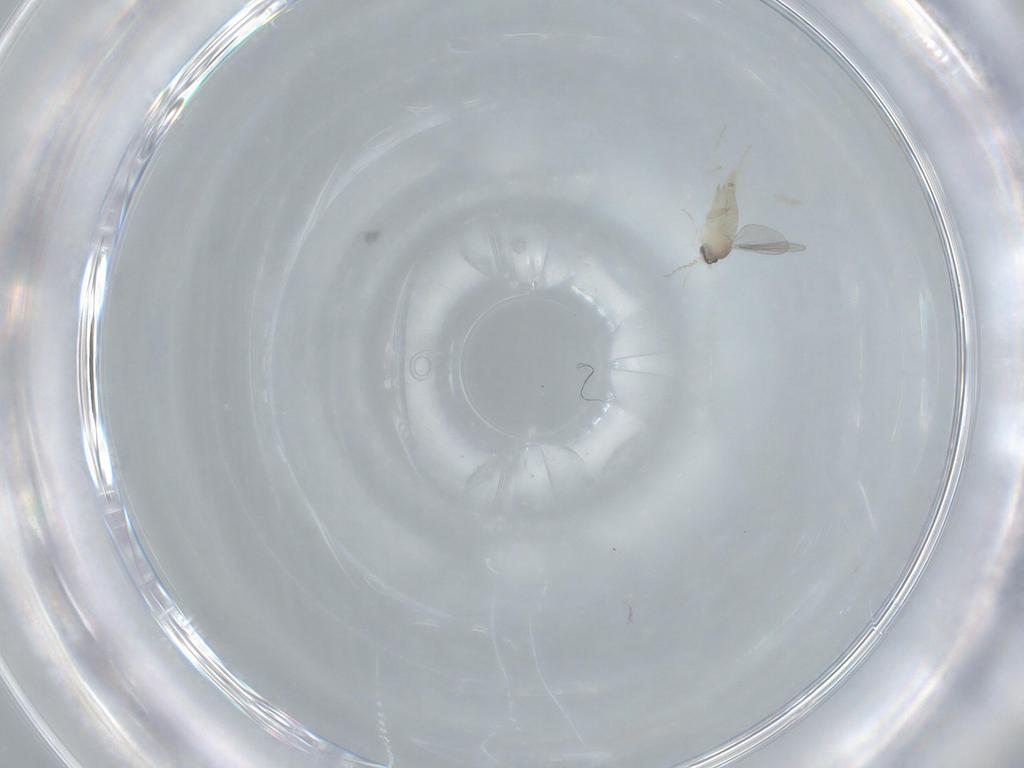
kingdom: Animalia
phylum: Arthropoda
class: Insecta
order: Diptera
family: Cecidomyiidae
